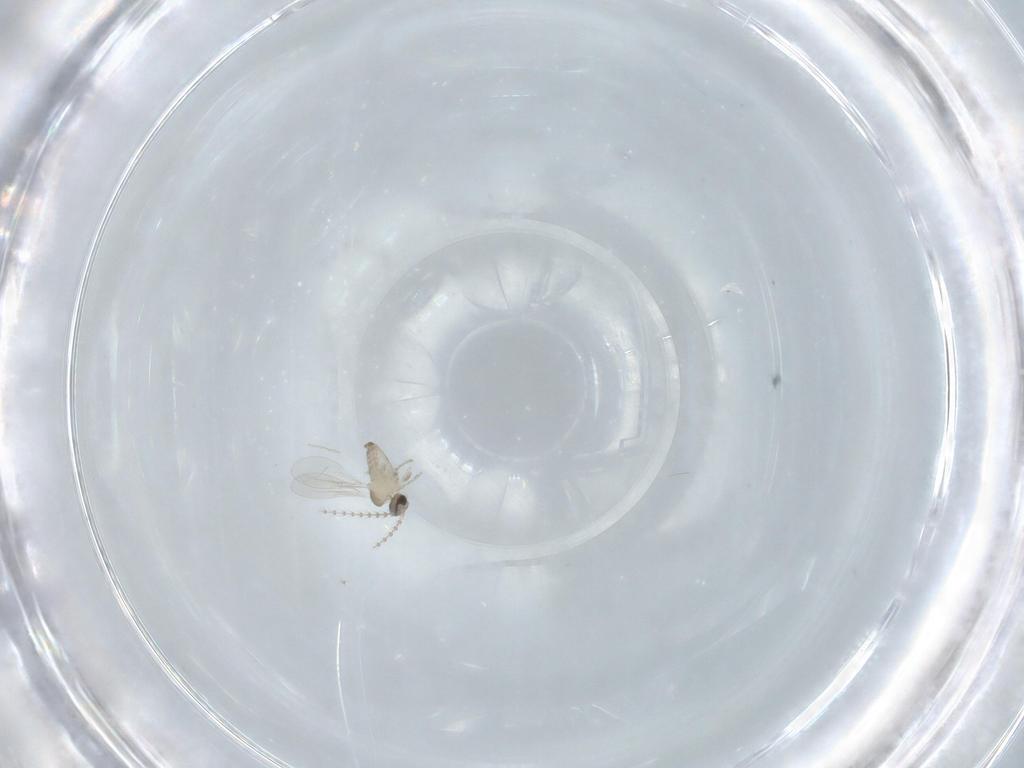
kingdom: Animalia
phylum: Arthropoda
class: Insecta
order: Diptera
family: Cecidomyiidae
